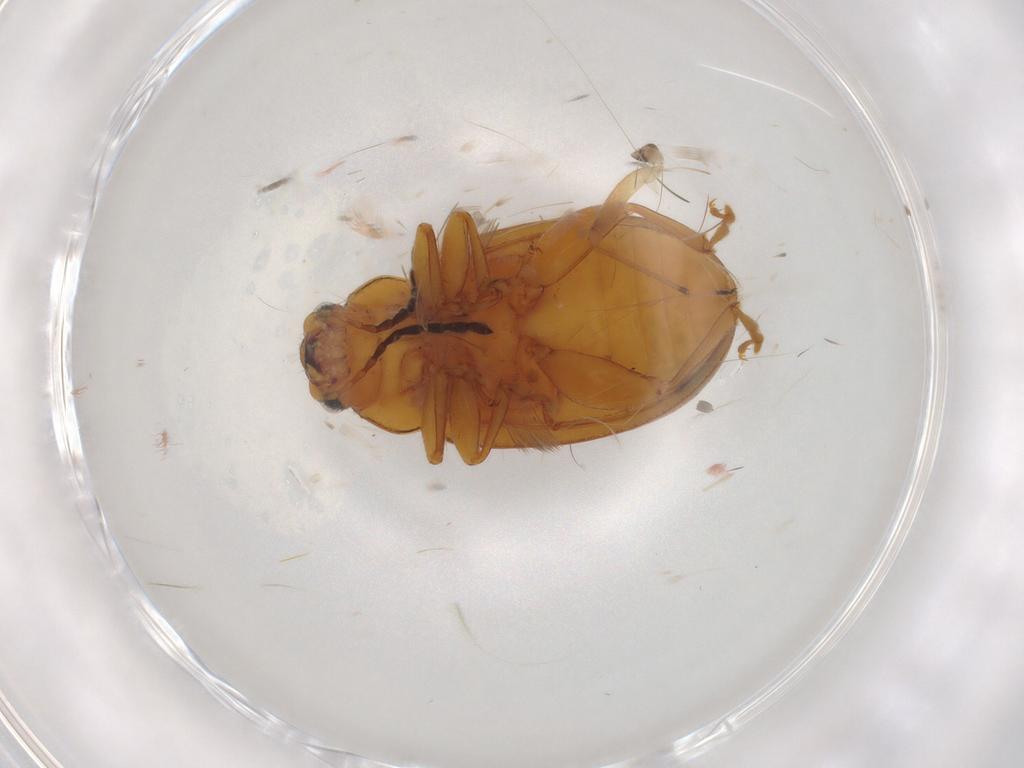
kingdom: Animalia
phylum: Arthropoda
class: Insecta
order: Coleoptera
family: Chrysomelidae
